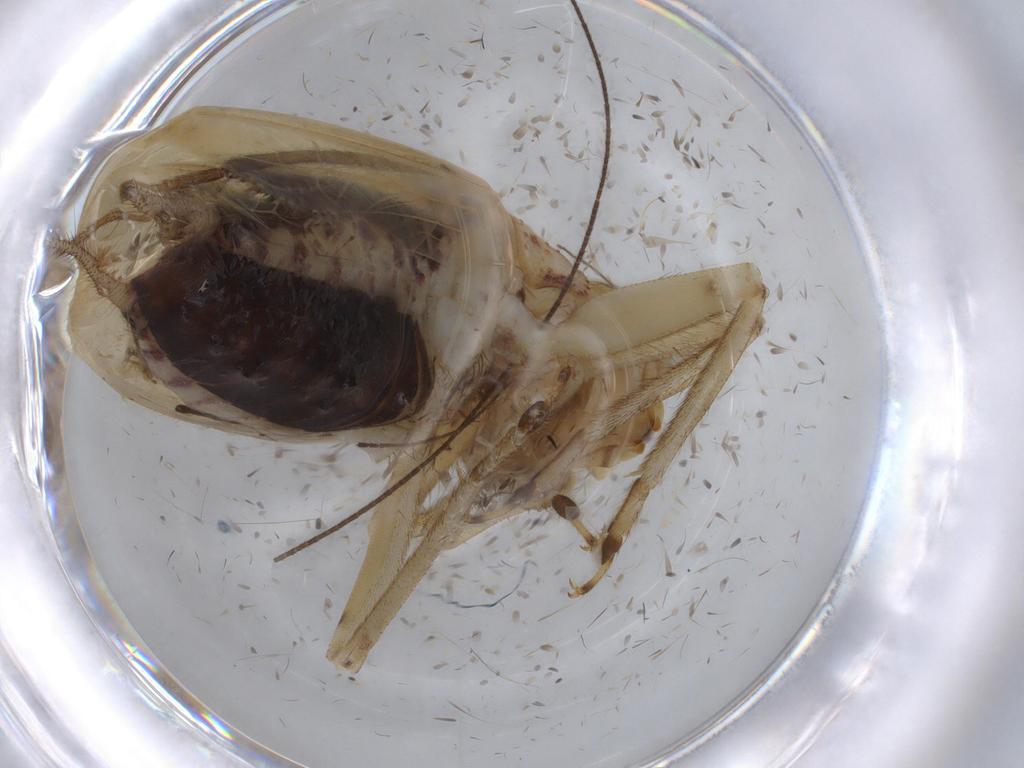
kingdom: Animalia
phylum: Arthropoda
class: Insecta
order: Orthoptera
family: Trigonidiidae
